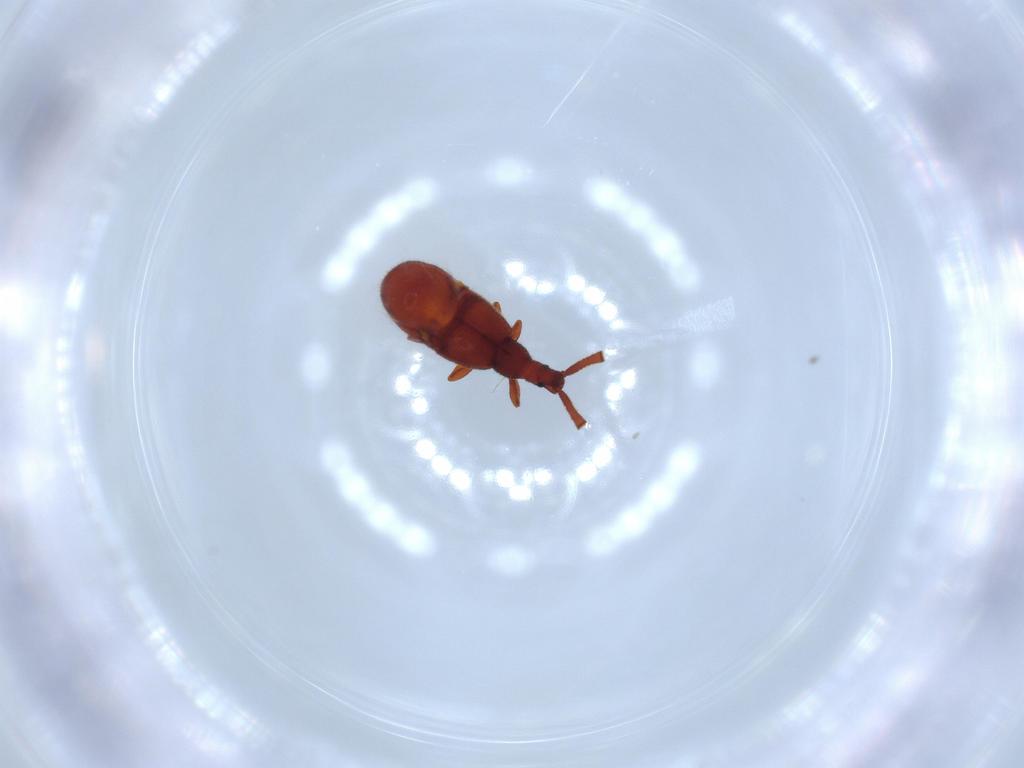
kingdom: Animalia
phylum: Arthropoda
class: Insecta
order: Coleoptera
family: Staphylinidae
